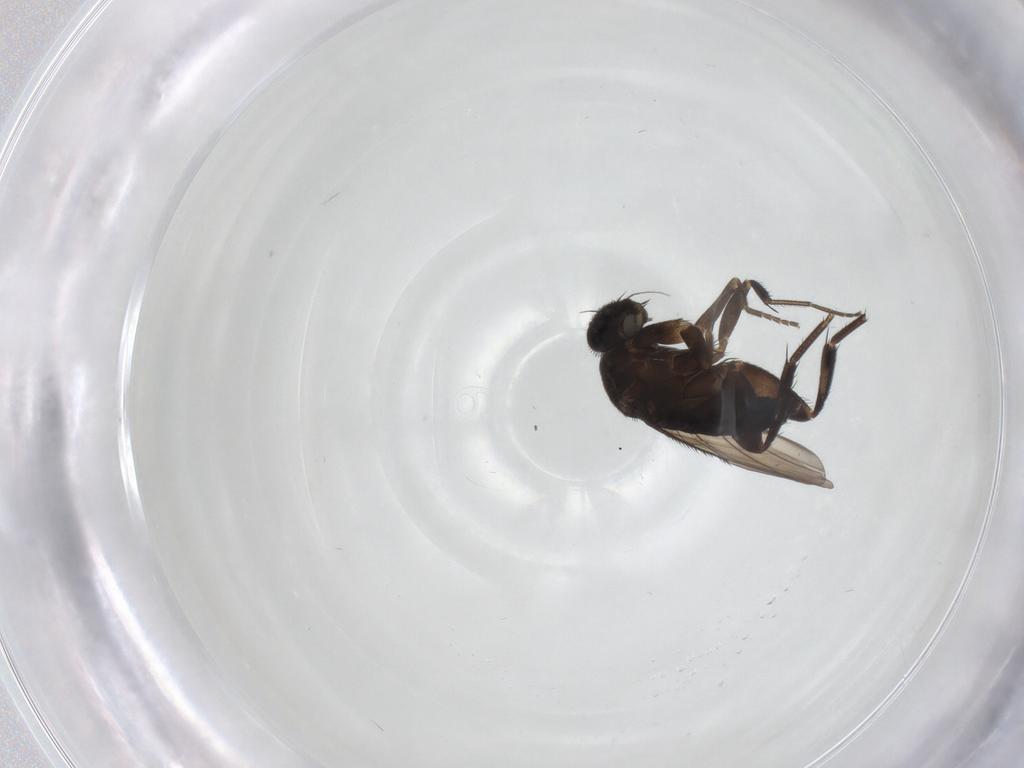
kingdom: Animalia
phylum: Arthropoda
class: Insecta
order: Diptera
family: Phoridae
